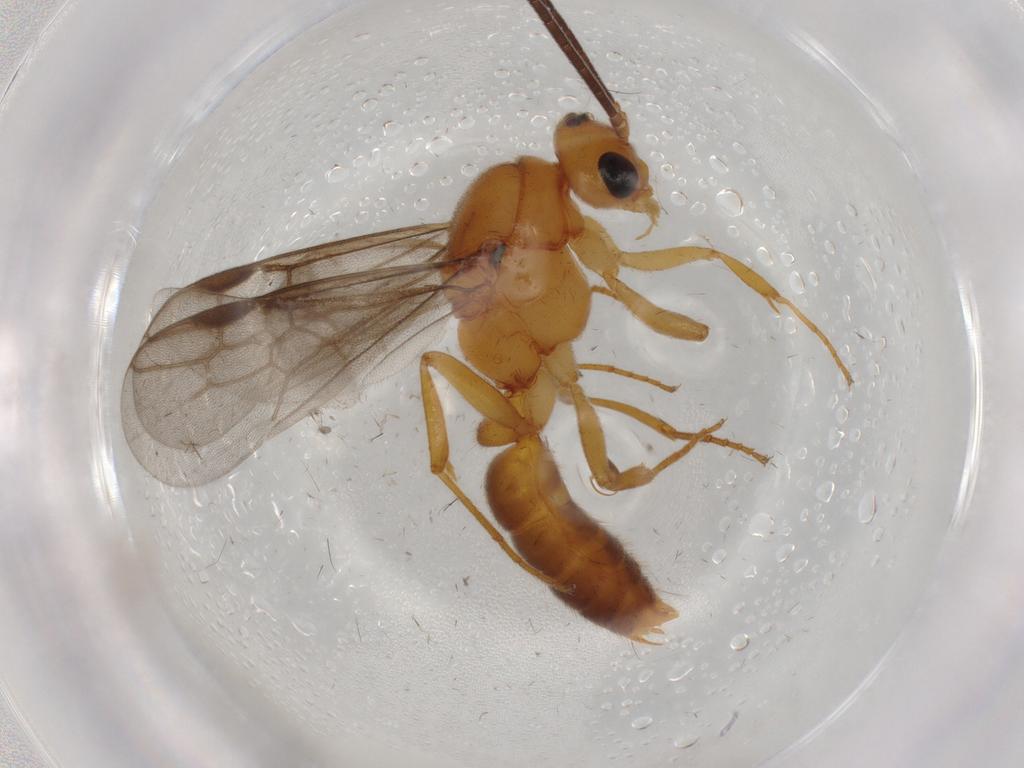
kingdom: Animalia
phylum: Arthropoda
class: Insecta
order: Hymenoptera
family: Formicidae
